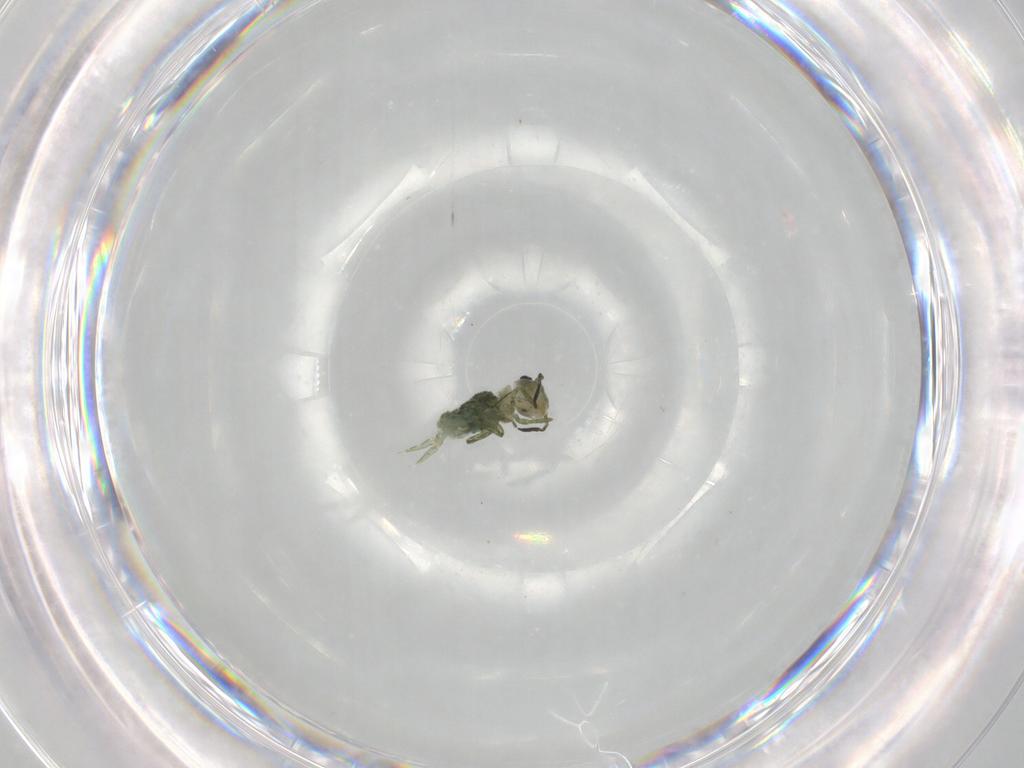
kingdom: Animalia
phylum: Arthropoda
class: Collembola
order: Symphypleona
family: Sminthuridae
